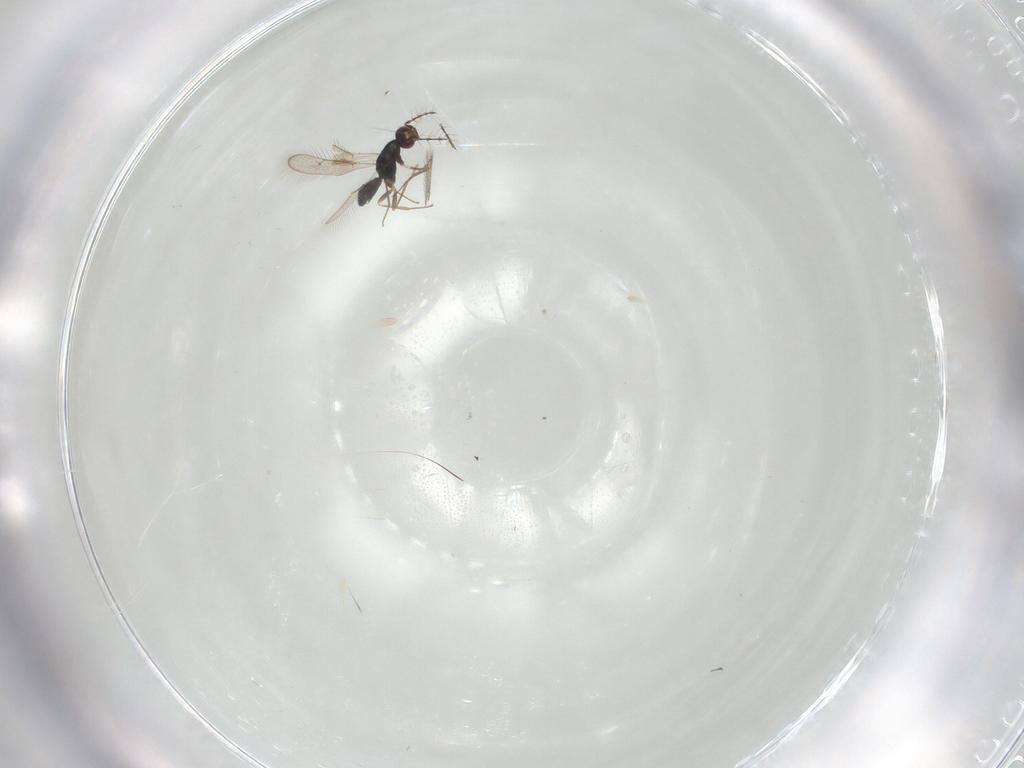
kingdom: Animalia
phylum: Arthropoda
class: Insecta
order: Hymenoptera
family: Pteromalidae
